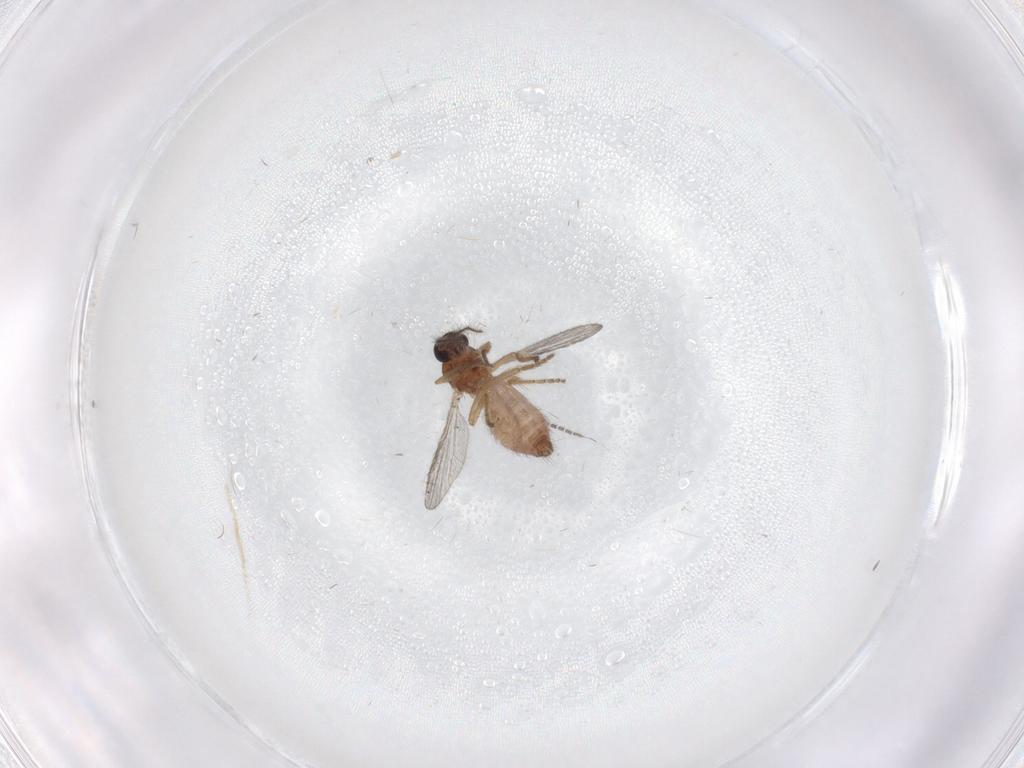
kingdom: Animalia
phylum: Arthropoda
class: Insecta
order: Diptera
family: Ceratopogonidae
